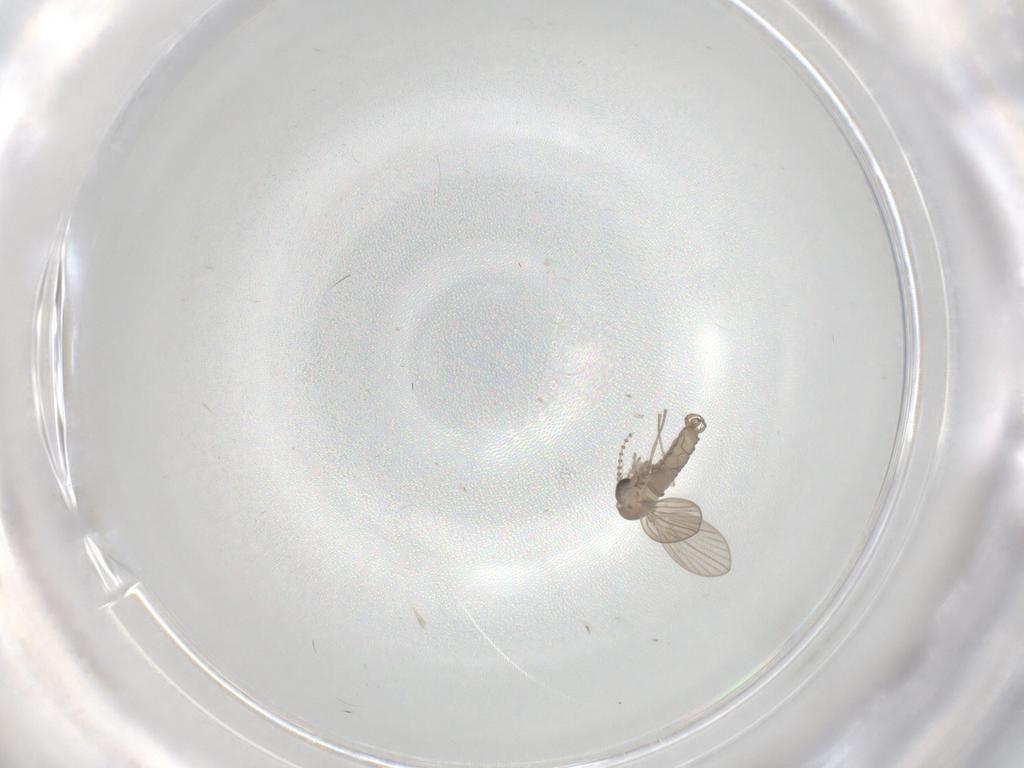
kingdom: Animalia
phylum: Arthropoda
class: Insecta
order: Diptera
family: Psychodidae
